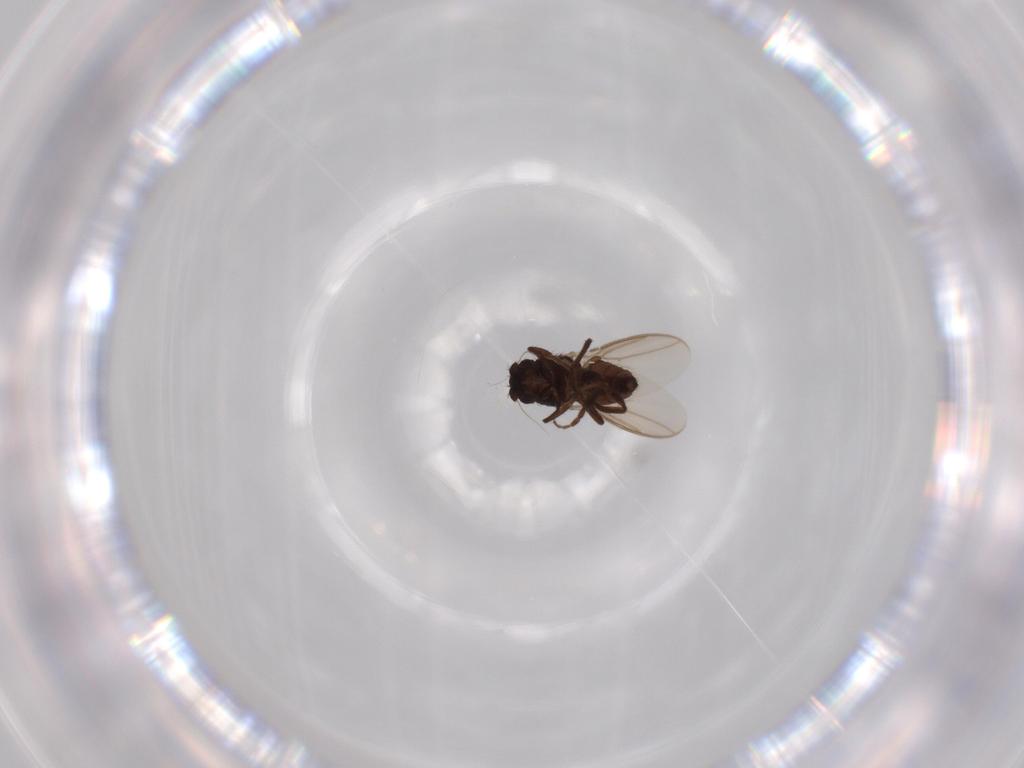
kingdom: Animalia
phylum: Arthropoda
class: Insecta
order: Diptera
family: Sphaeroceridae
